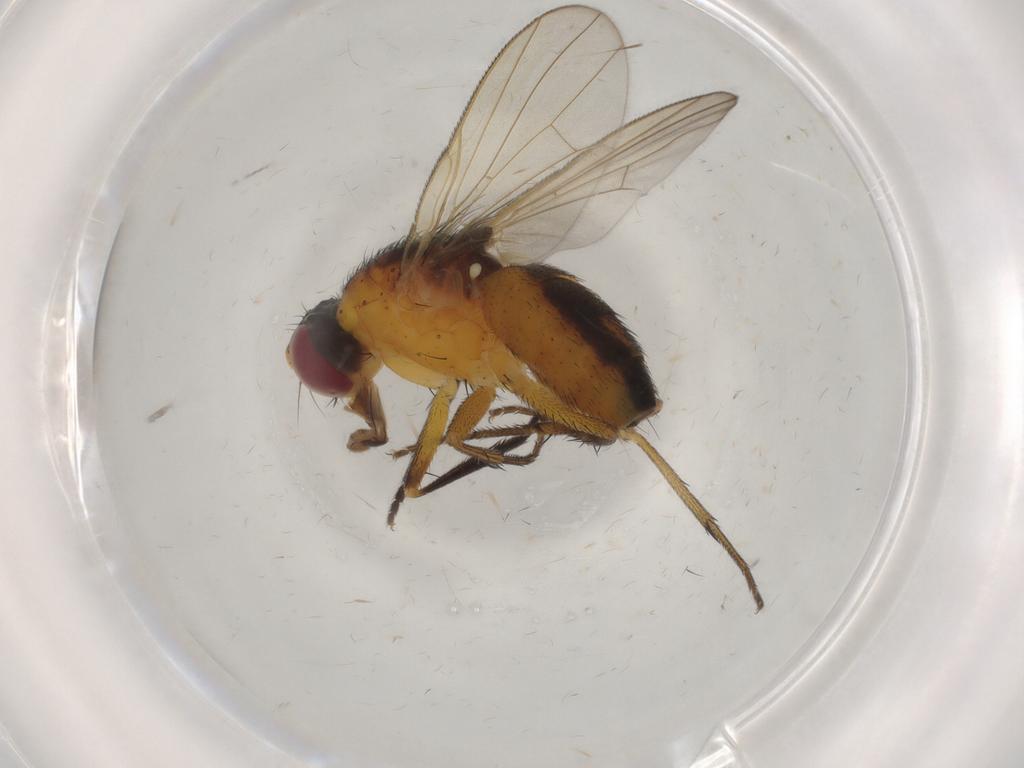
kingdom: Animalia
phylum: Arthropoda
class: Insecta
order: Diptera
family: Muscidae
